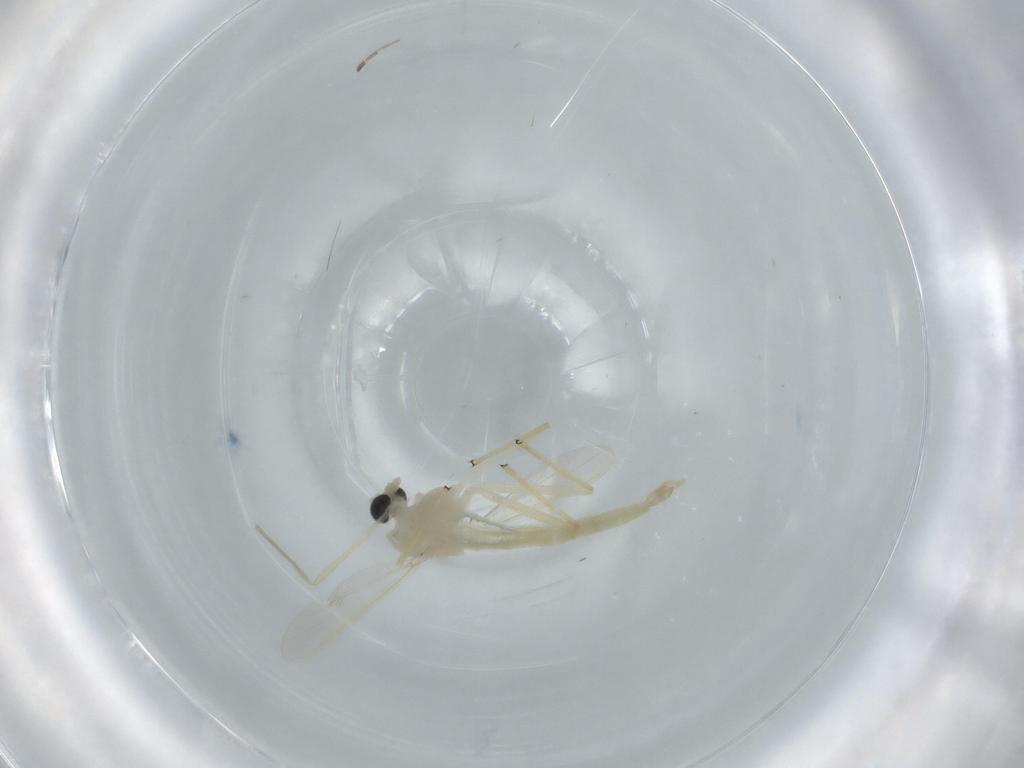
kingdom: Animalia
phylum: Arthropoda
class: Insecta
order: Diptera
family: Chironomidae
